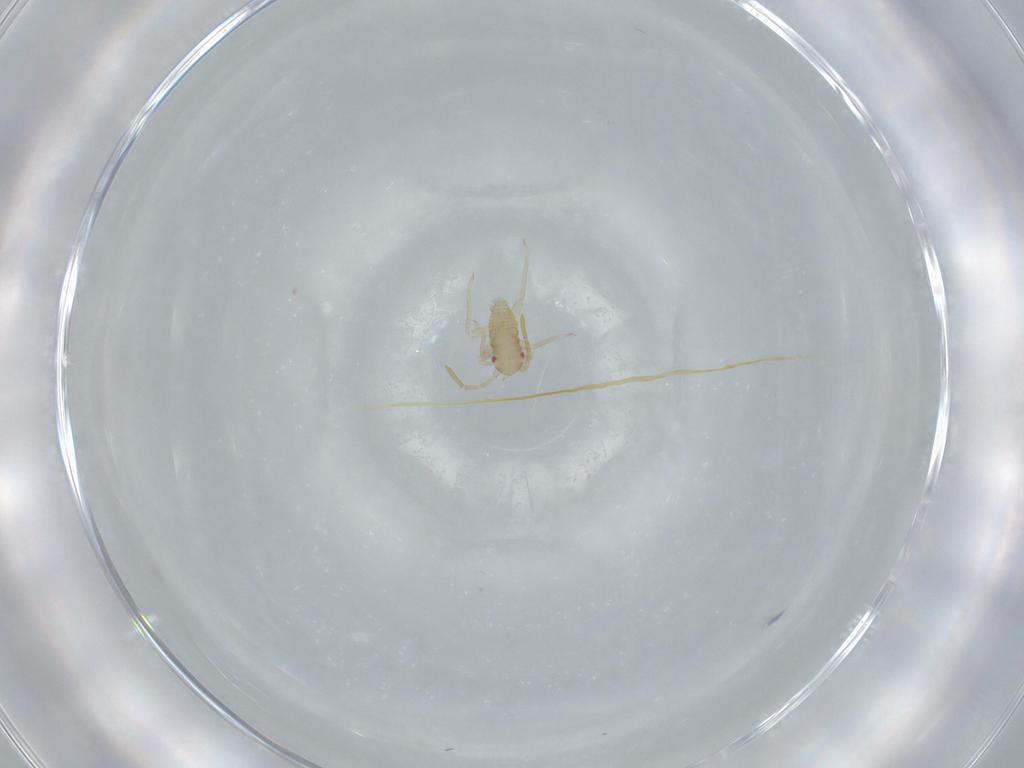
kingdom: Animalia
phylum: Arthropoda
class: Insecta
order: Hemiptera
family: Miridae
